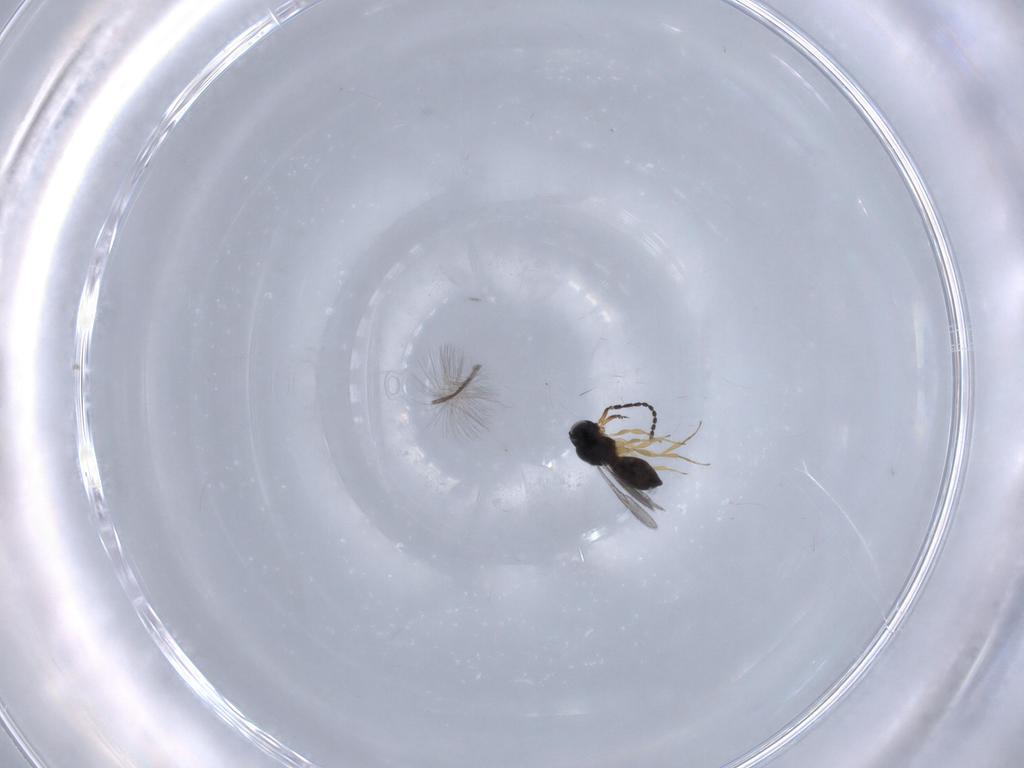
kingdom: Animalia
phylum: Arthropoda
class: Insecta
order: Hymenoptera
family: Scelionidae
